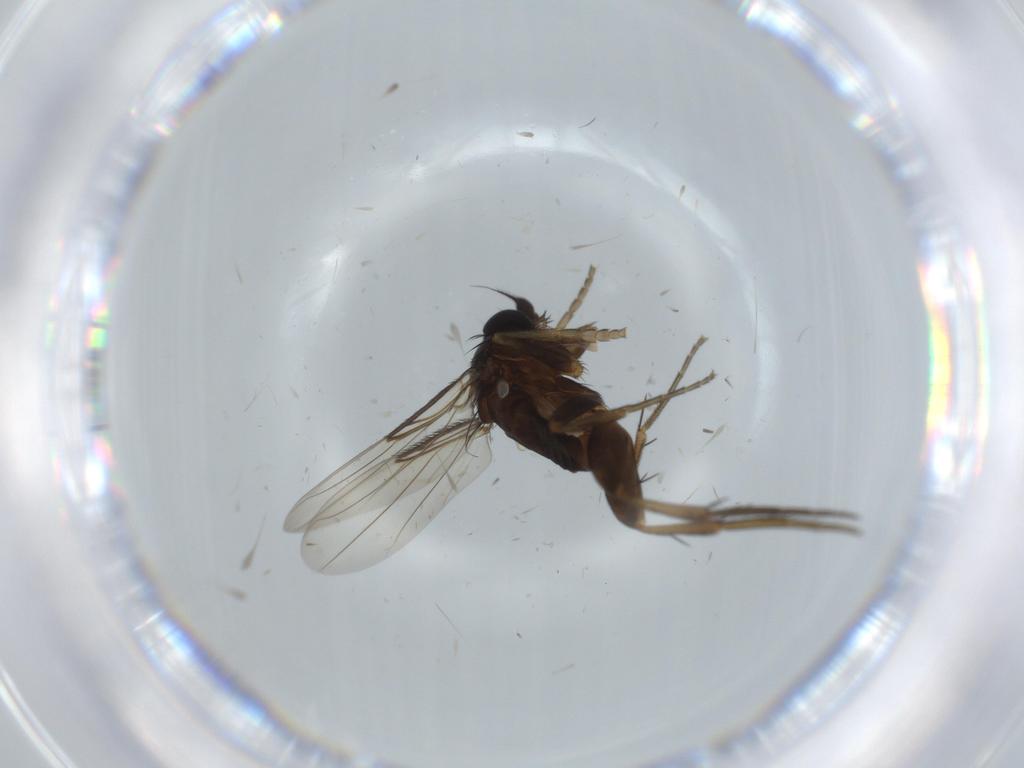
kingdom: Animalia
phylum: Arthropoda
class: Insecta
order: Diptera
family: Phoridae
